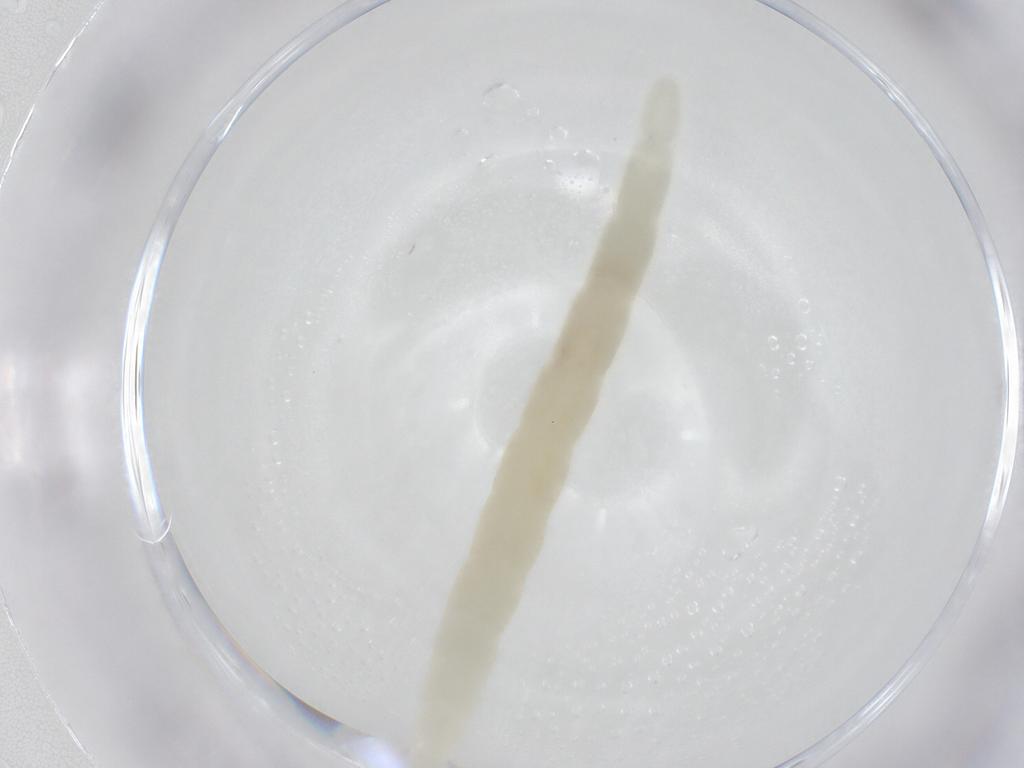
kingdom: Animalia
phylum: Arthropoda
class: Insecta
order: Diptera
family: Ceratopogonidae
